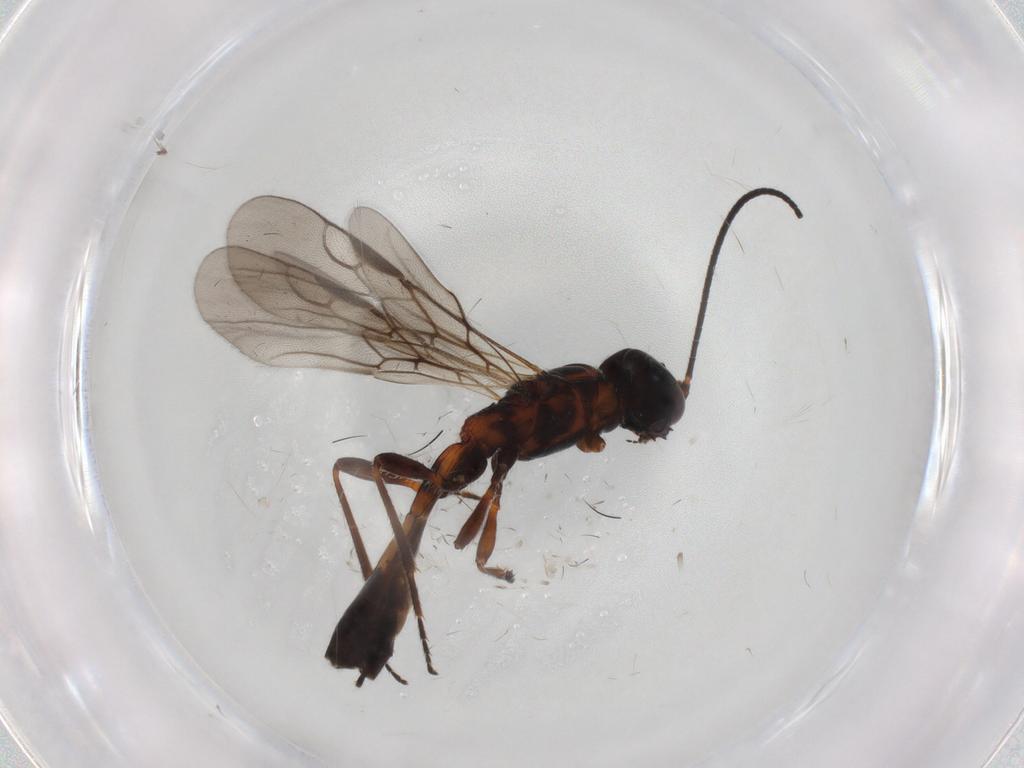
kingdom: Animalia
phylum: Arthropoda
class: Insecta
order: Hymenoptera
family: Braconidae
